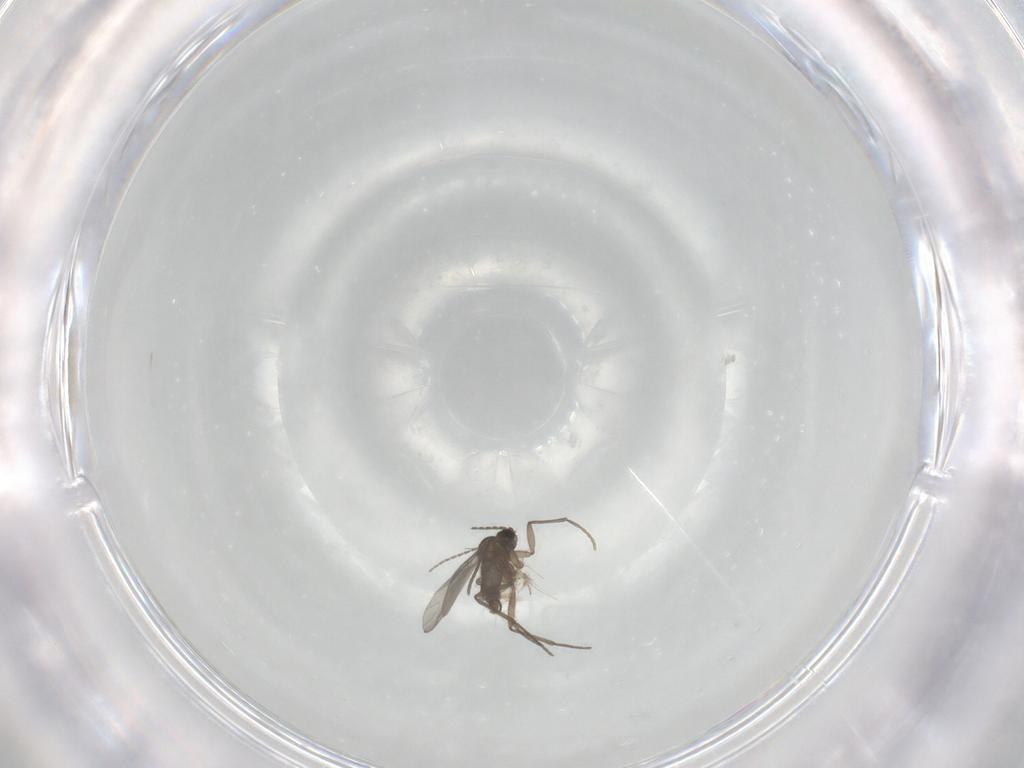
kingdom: Animalia
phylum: Arthropoda
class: Insecta
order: Diptera
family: Sciaridae
